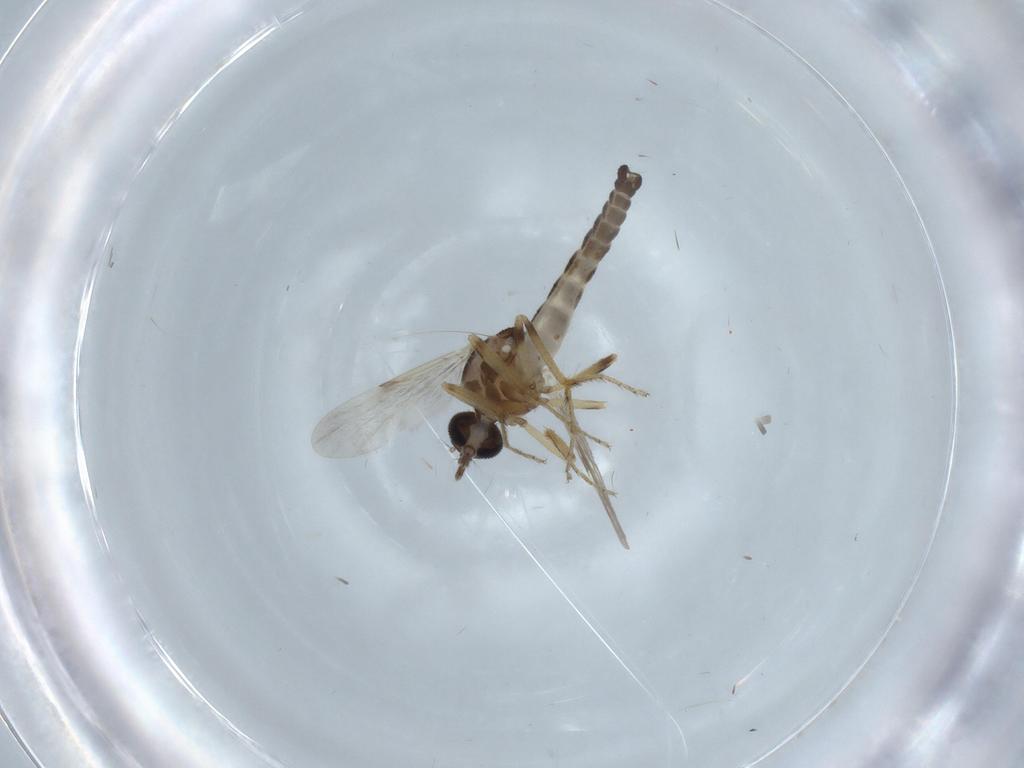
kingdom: Animalia
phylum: Arthropoda
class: Insecta
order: Diptera
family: Ceratopogonidae
